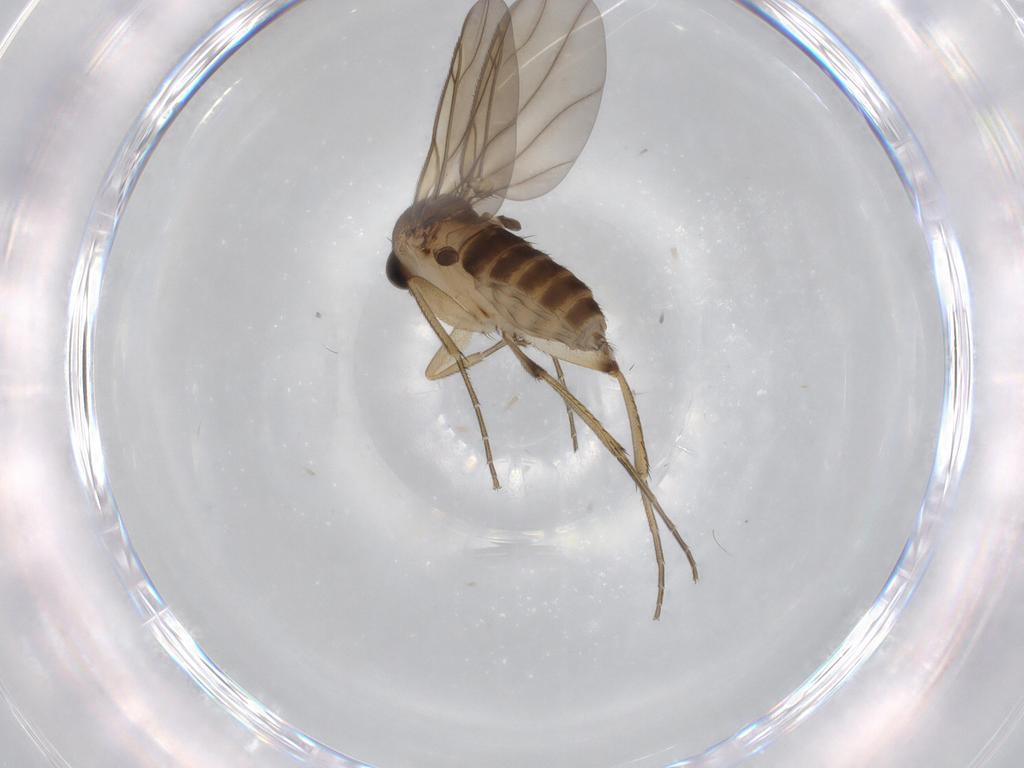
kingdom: Animalia
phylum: Arthropoda
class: Insecta
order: Diptera
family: Phoridae
